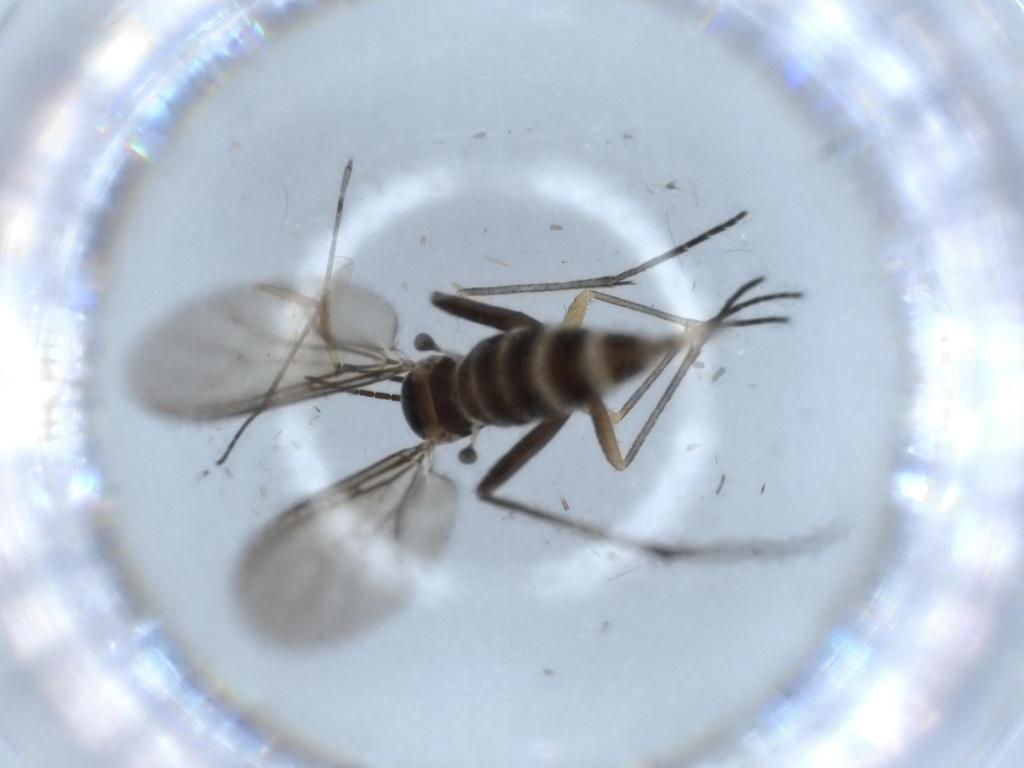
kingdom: Animalia
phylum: Arthropoda
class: Insecta
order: Diptera
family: Sciaridae
